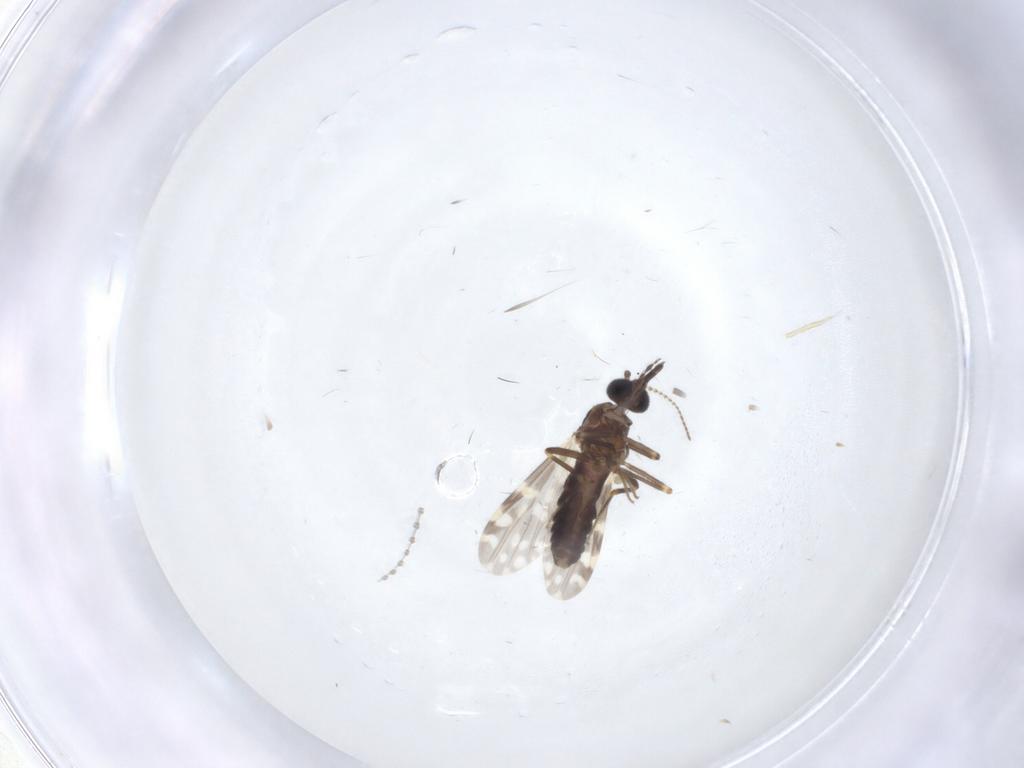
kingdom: Animalia
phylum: Arthropoda
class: Insecta
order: Diptera
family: Ceratopogonidae
